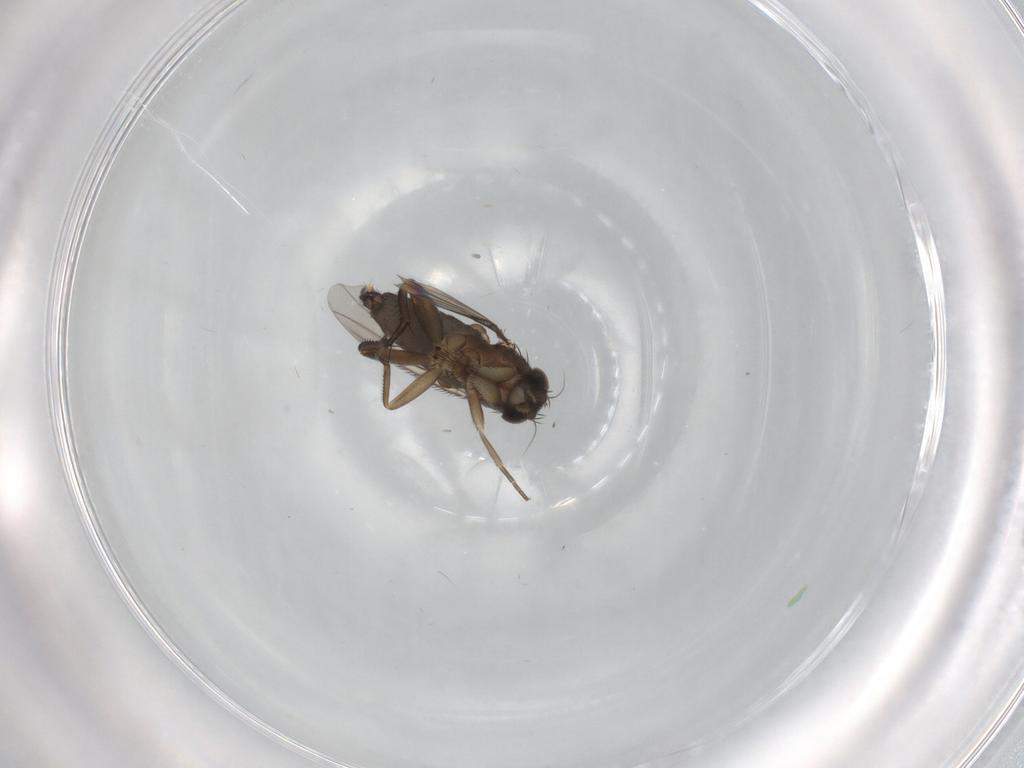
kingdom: Animalia
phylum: Arthropoda
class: Insecta
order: Diptera
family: Phoridae
